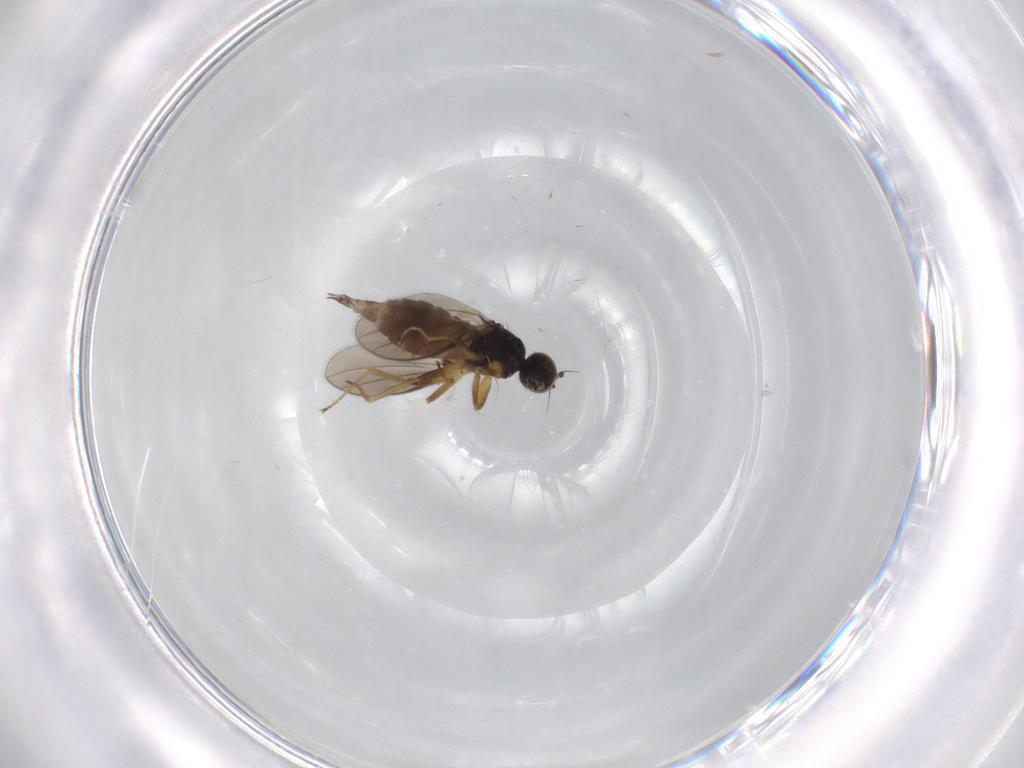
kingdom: Animalia
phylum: Arthropoda
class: Insecta
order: Diptera
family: Hybotidae
